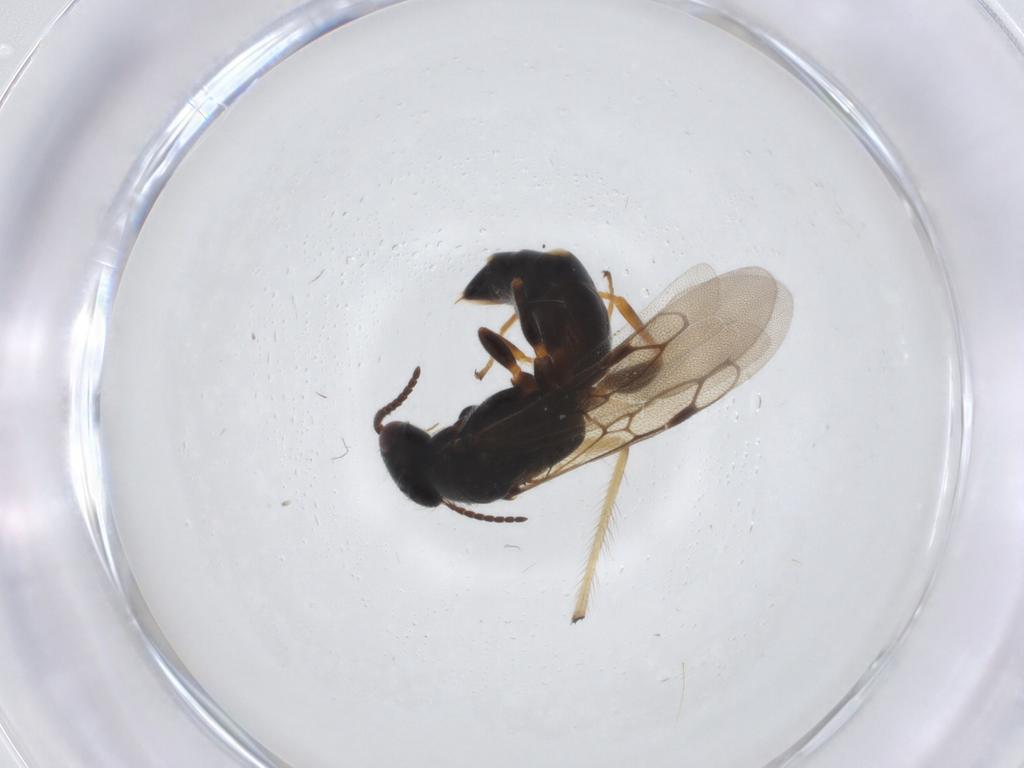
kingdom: Animalia
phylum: Arthropoda
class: Insecta
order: Hymenoptera
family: Bethylidae
